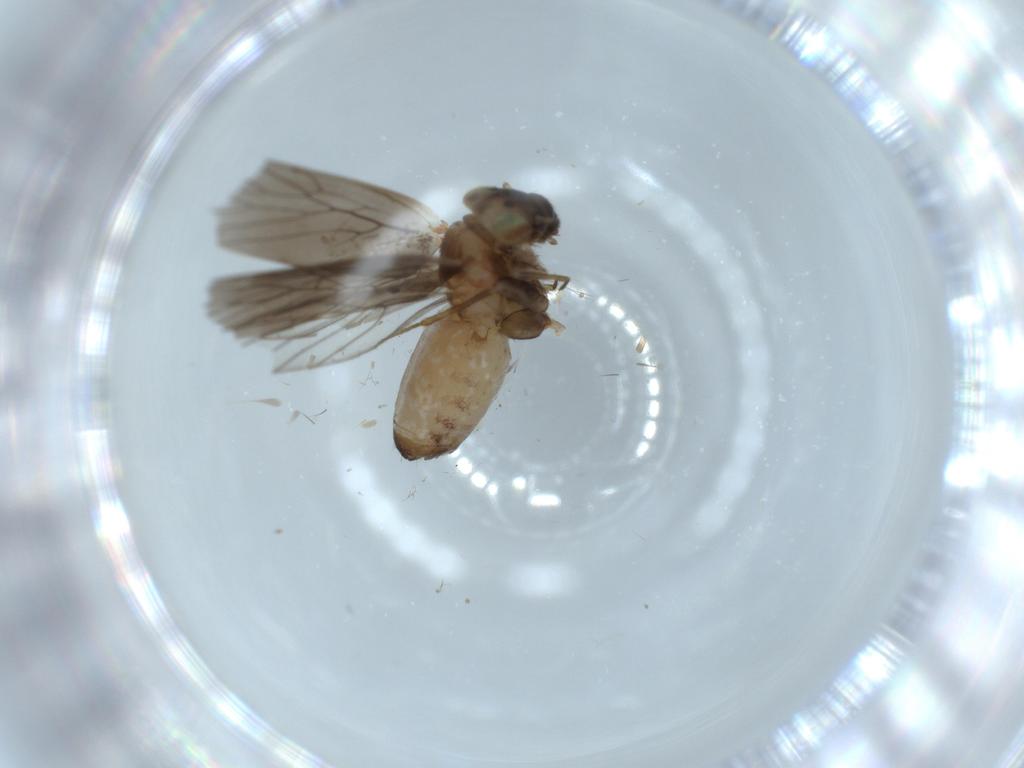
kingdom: Animalia
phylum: Arthropoda
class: Insecta
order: Psocodea
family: Lepidopsocidae
